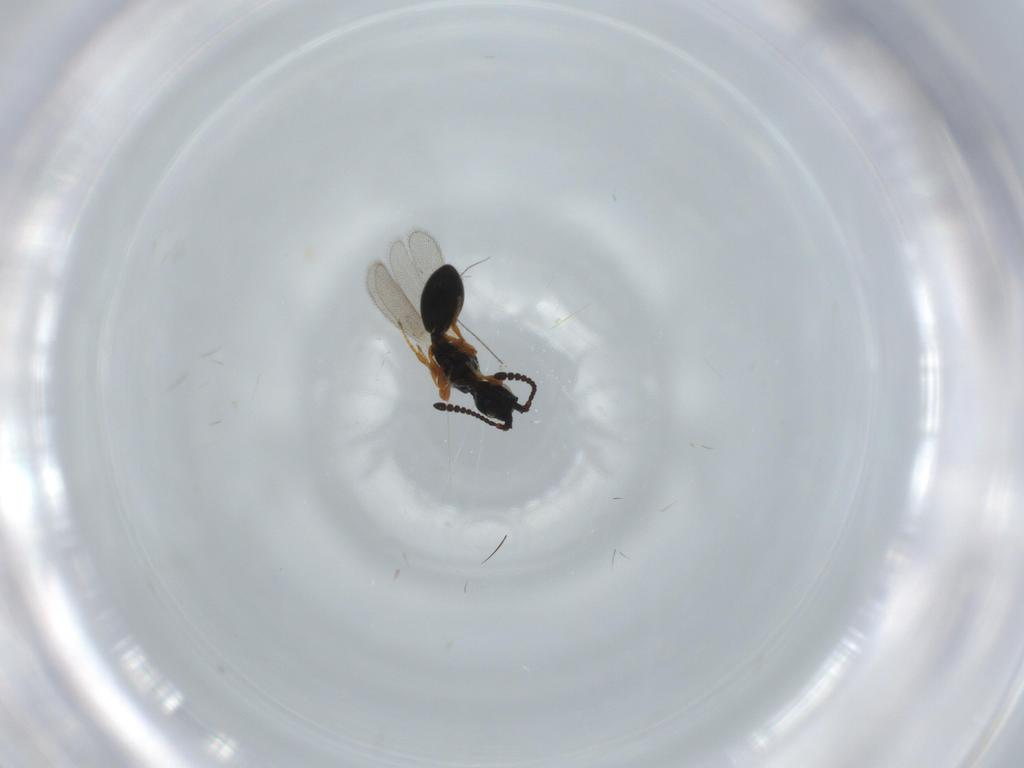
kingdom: Animalia
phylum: Arthropoda
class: Insecta
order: Hymenoptera
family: Diapriidae
